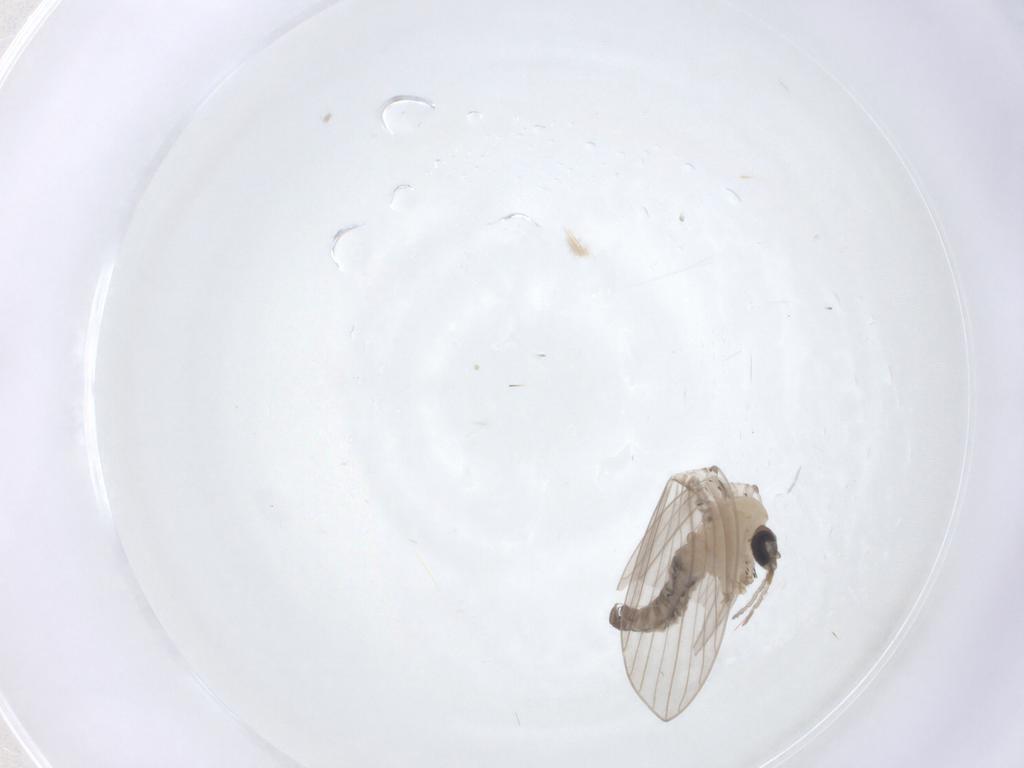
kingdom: Animalia
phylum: Arthropoda
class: Insecta
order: Diptera
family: Psychodidae
